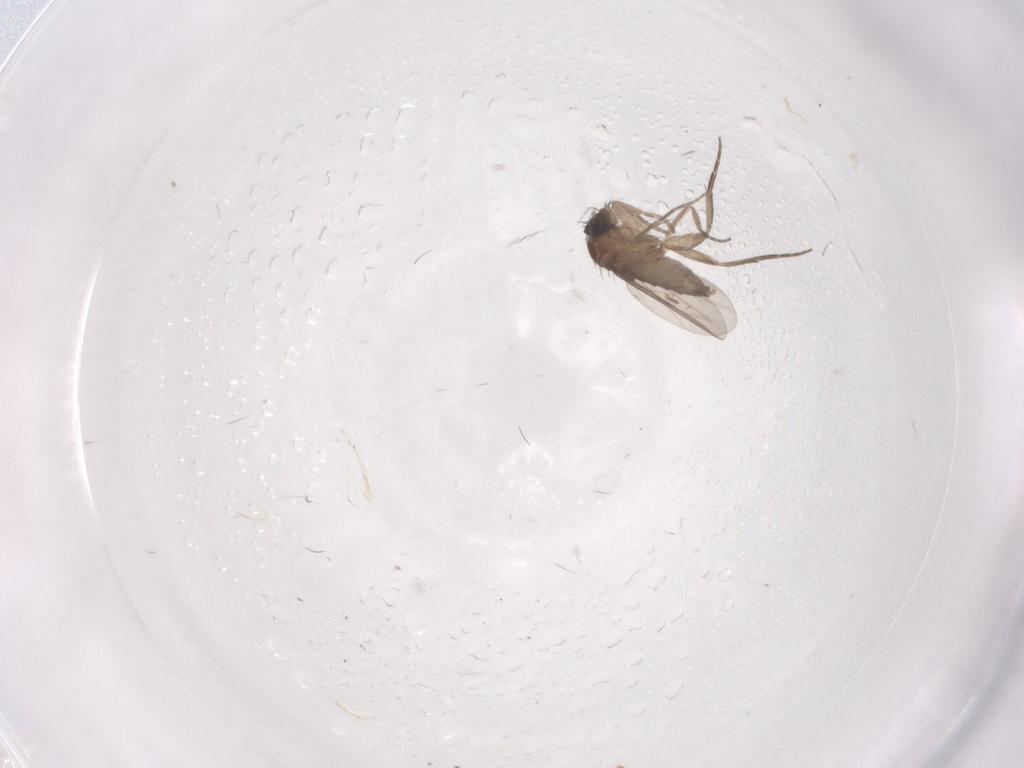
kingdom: Animalia
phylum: Arthropoda
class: Insecta
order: Diptera
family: Phoridae
